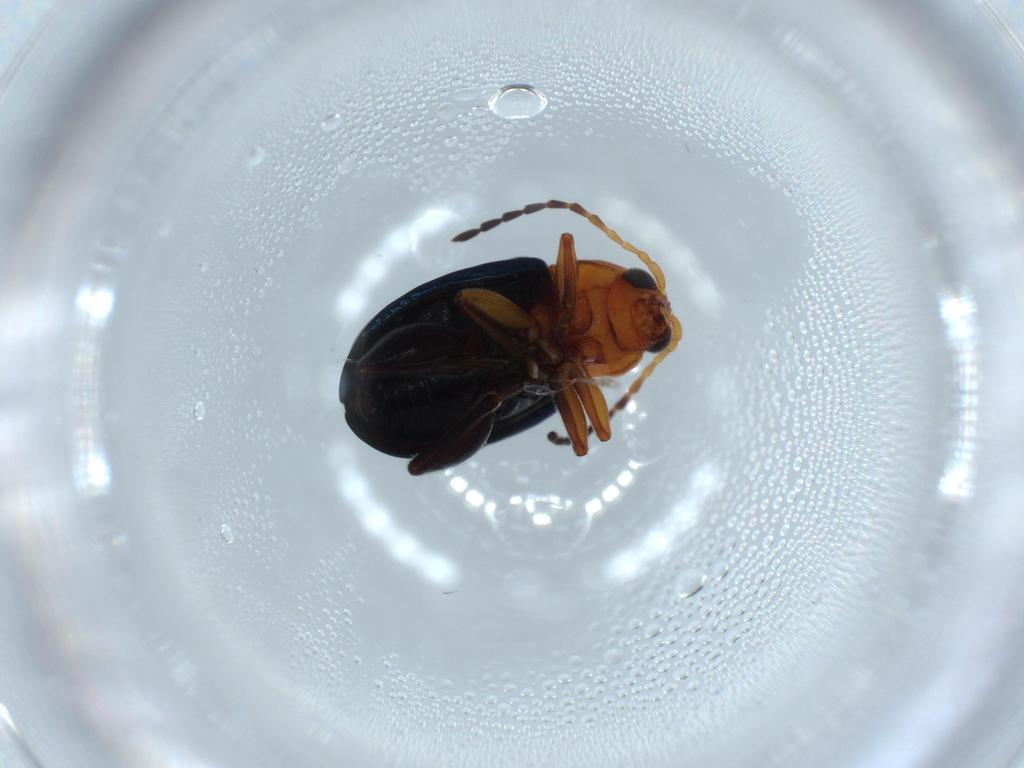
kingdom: Animalia
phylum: Arthropoda
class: Insecta
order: Coleoptera
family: Chrysomelidae
